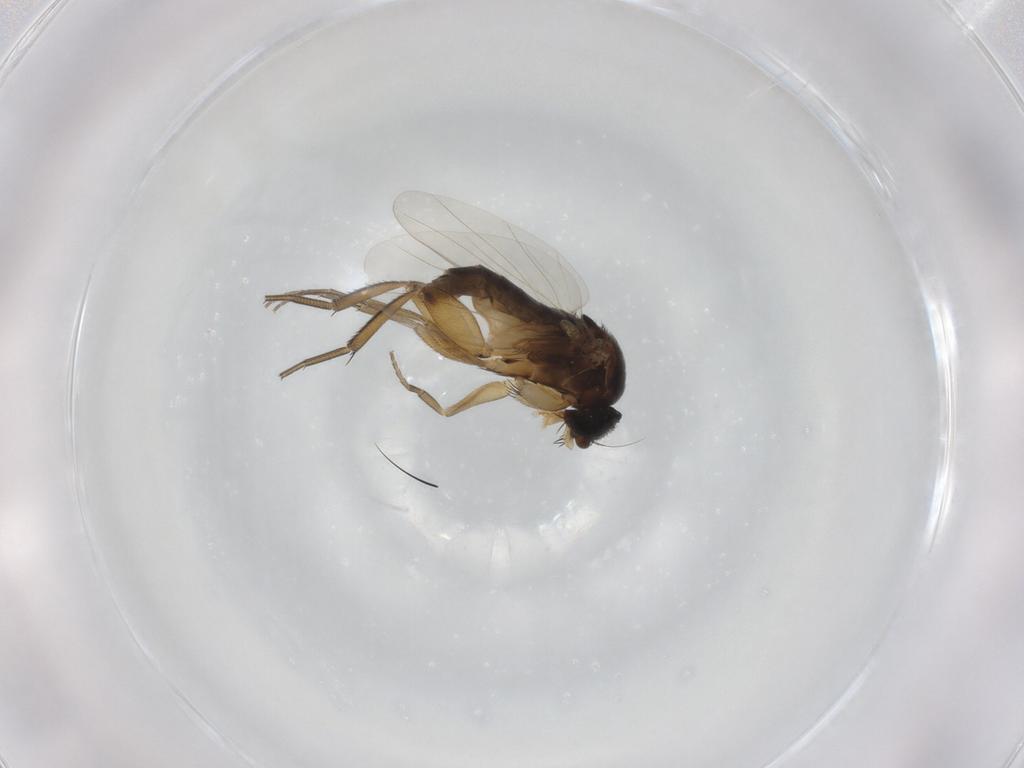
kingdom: Animalia
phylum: Arthropoda
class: Insecta
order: Diptera
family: Phoridae
